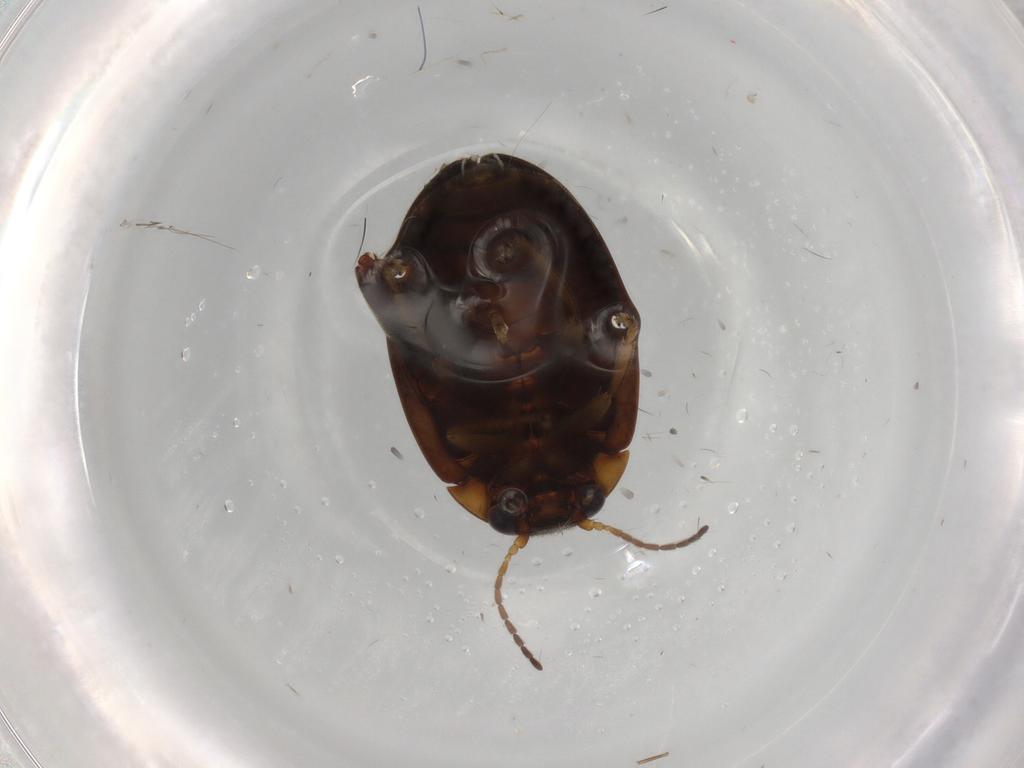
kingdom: Animalia
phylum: Arthropoda
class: Insecta
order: Coleoptera
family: Scirtidae
